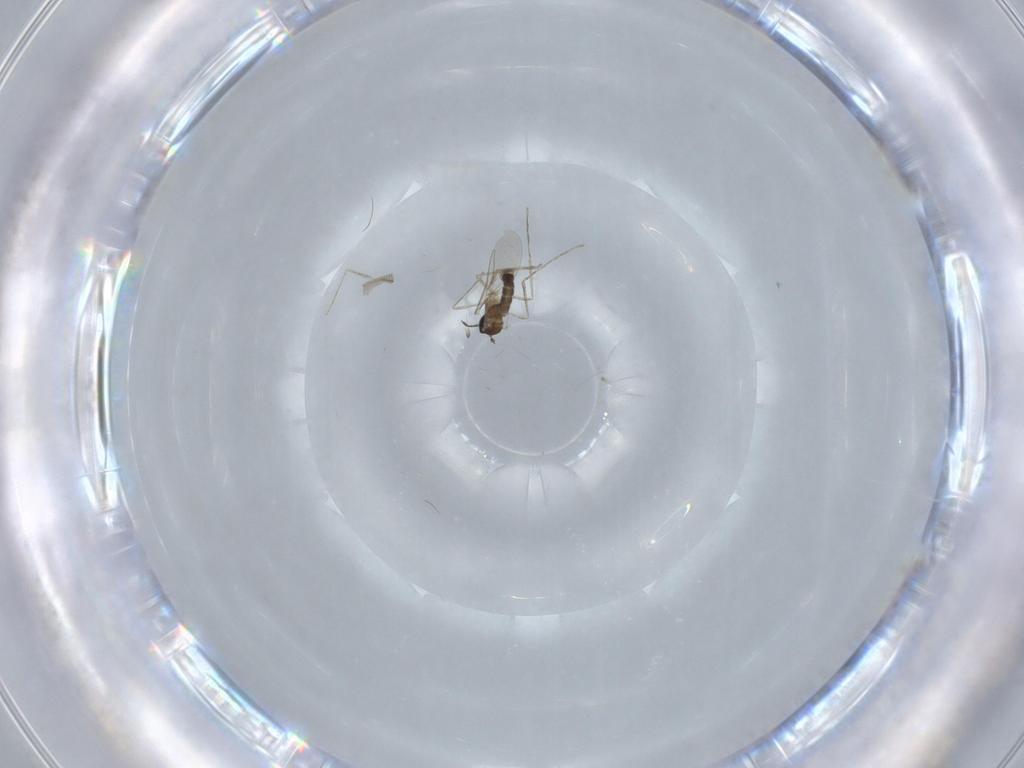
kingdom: Animalia
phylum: Arthropoda
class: Insecta
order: Diptera
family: Cecidomyiidae
